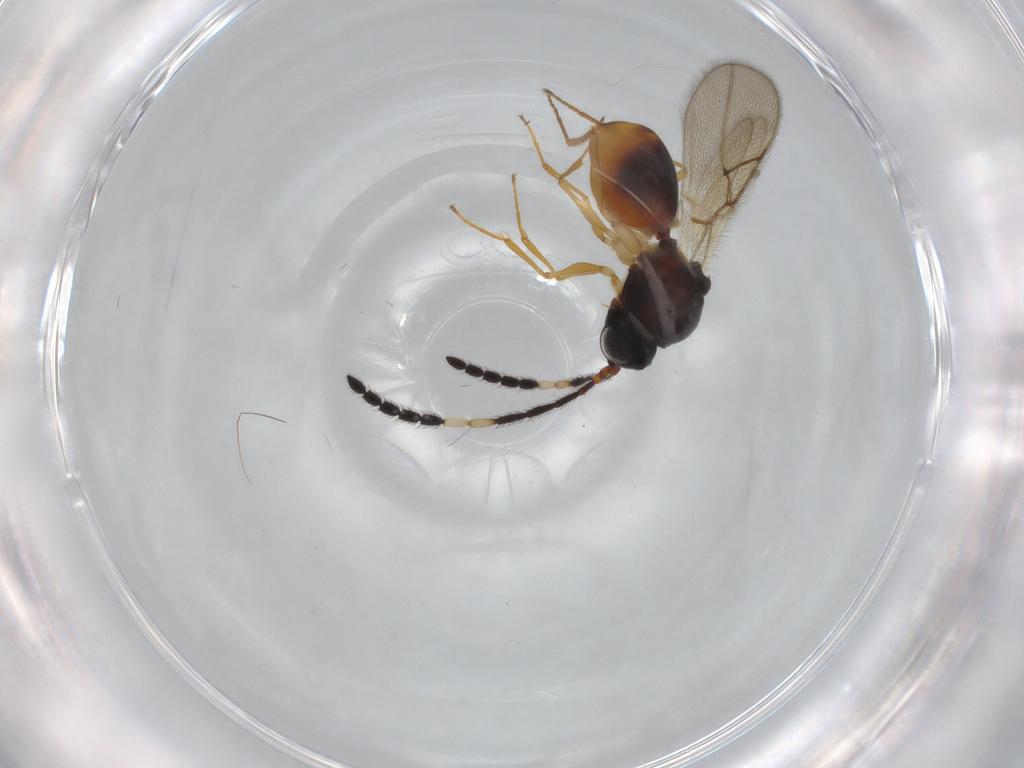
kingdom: Animalia
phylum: Arthropoda
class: Insecta
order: Hymenoptera
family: Figitidae
